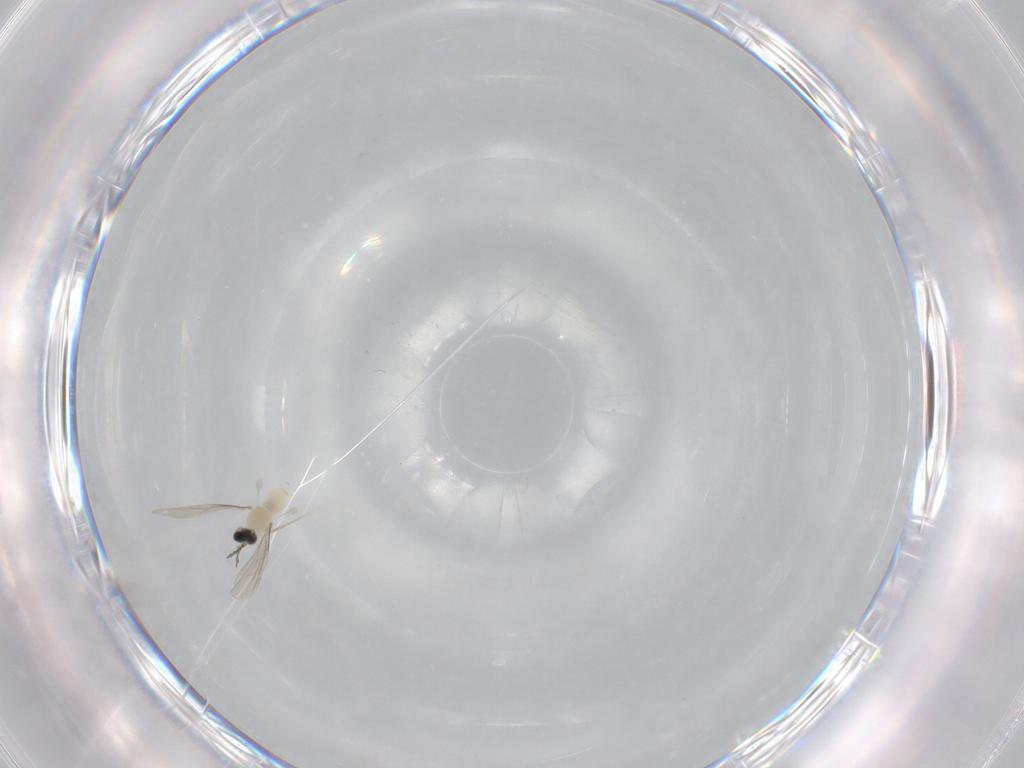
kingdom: Animalia
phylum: Arthropoda
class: Insecta
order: Diptera
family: Cecidomyiidae
